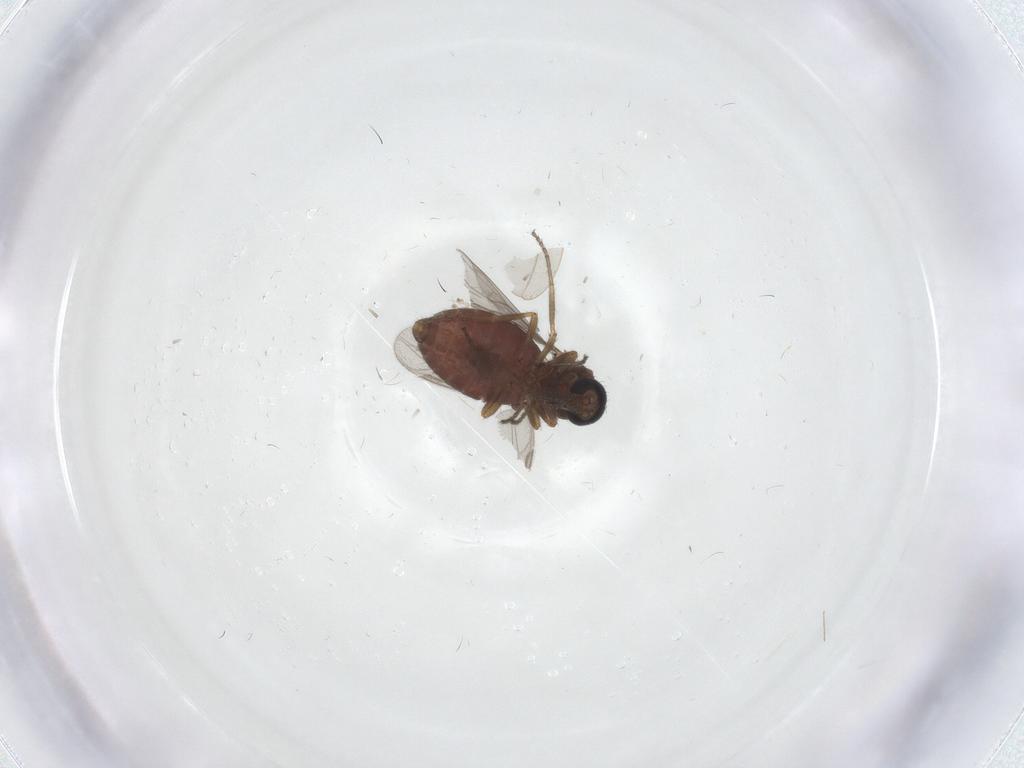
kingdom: Animalia
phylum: Arthropoda
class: Insecta
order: Diptera
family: Ceratopogonidae
